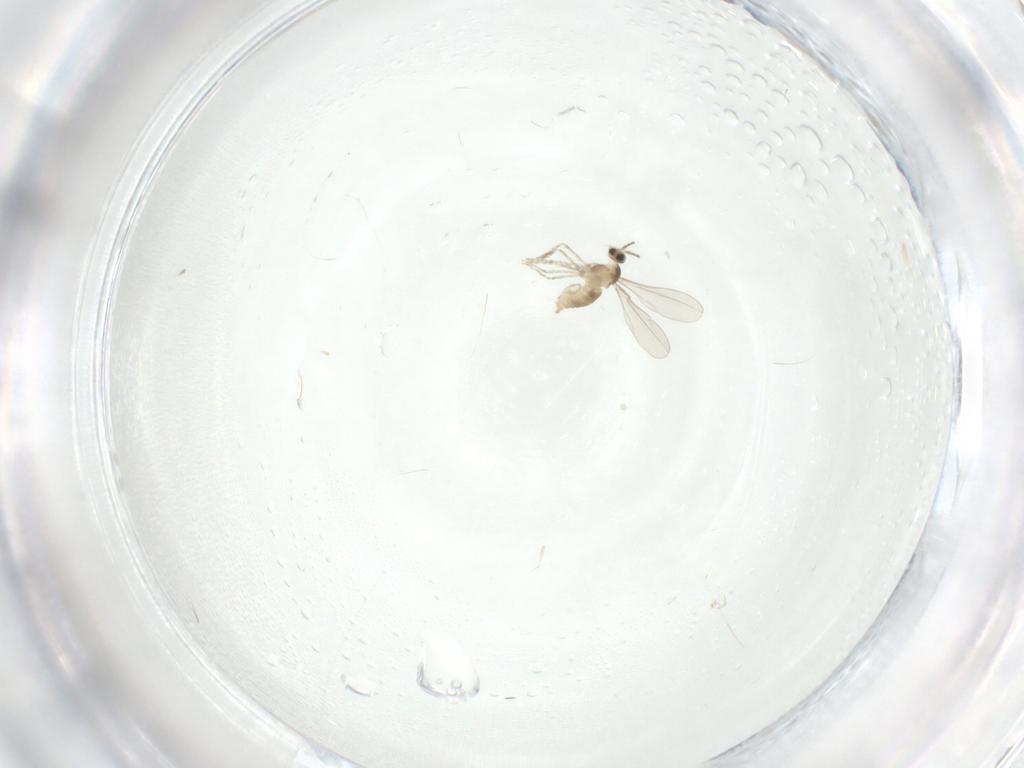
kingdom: Animalia
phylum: Arthropoda
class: Insecta
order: Diptera
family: Cecidomyiidae
